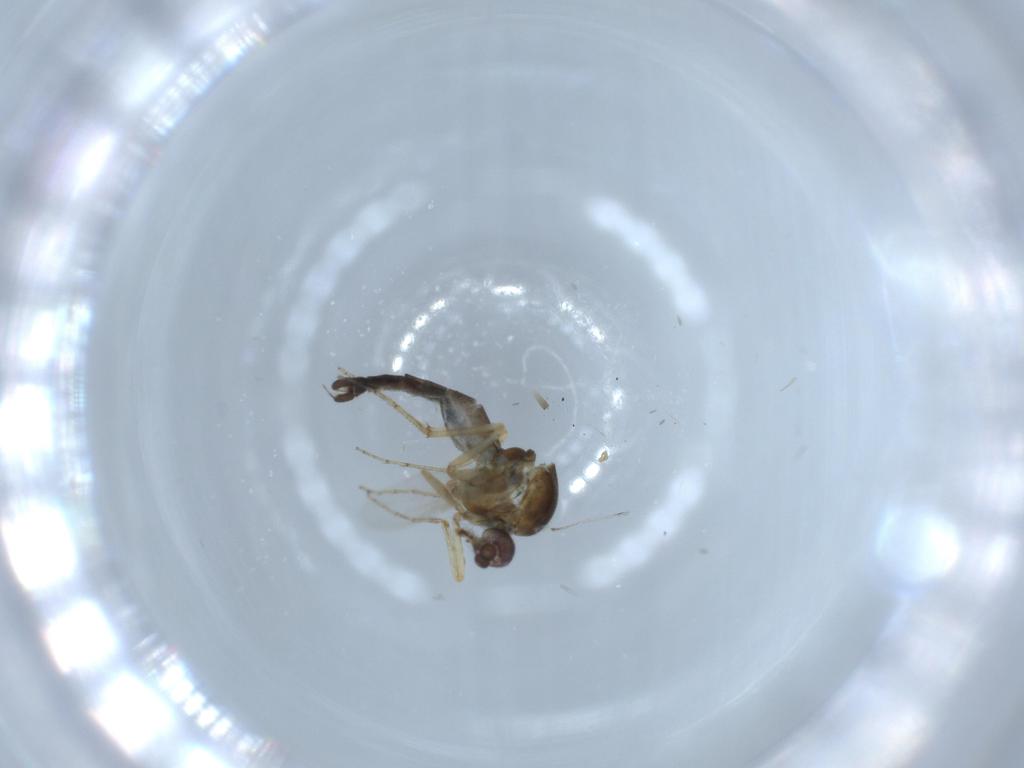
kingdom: Animalia
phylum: Arthropoda
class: Insecta
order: Diptera
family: Ceratopogonidae
